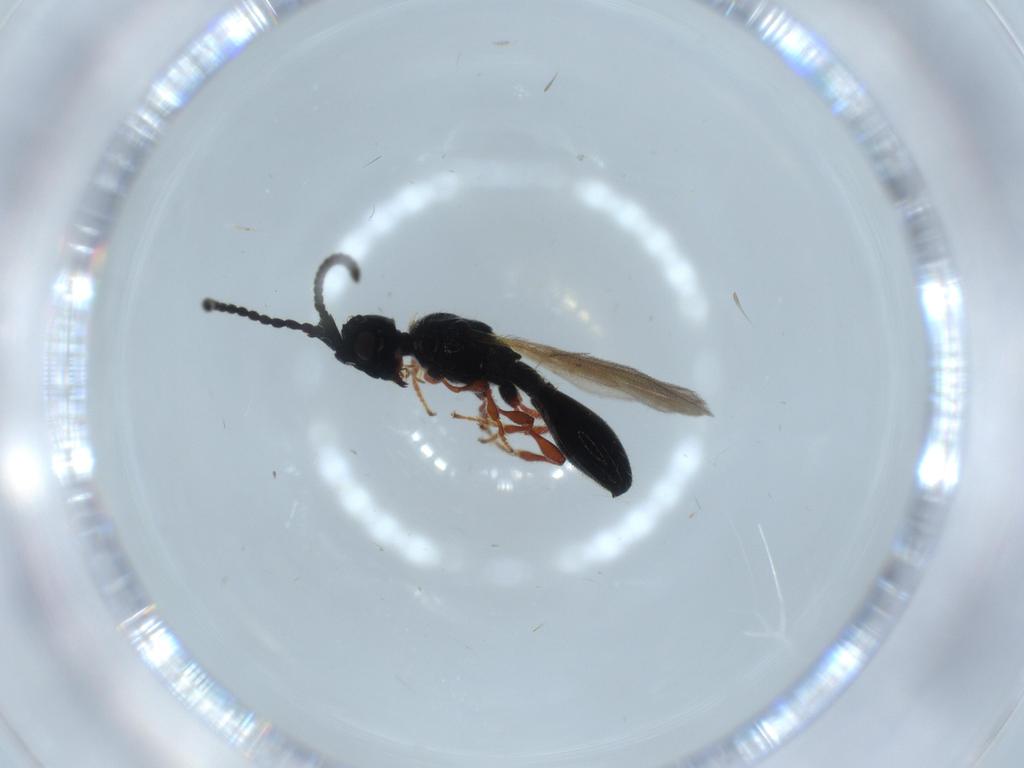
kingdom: Animalia
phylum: Arthropoda
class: Insecta
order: Hymenoptera
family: Diapriidae
